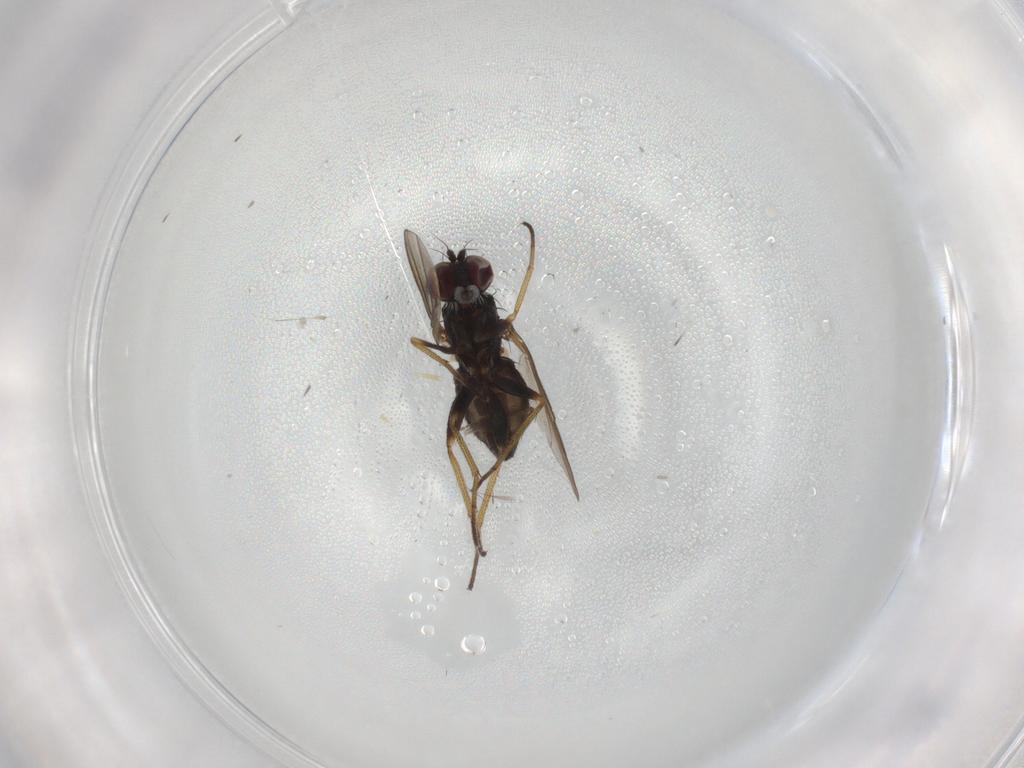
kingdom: Animalia
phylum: Arthropoda
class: Insecta
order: Diptera
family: Dolichopodidae
